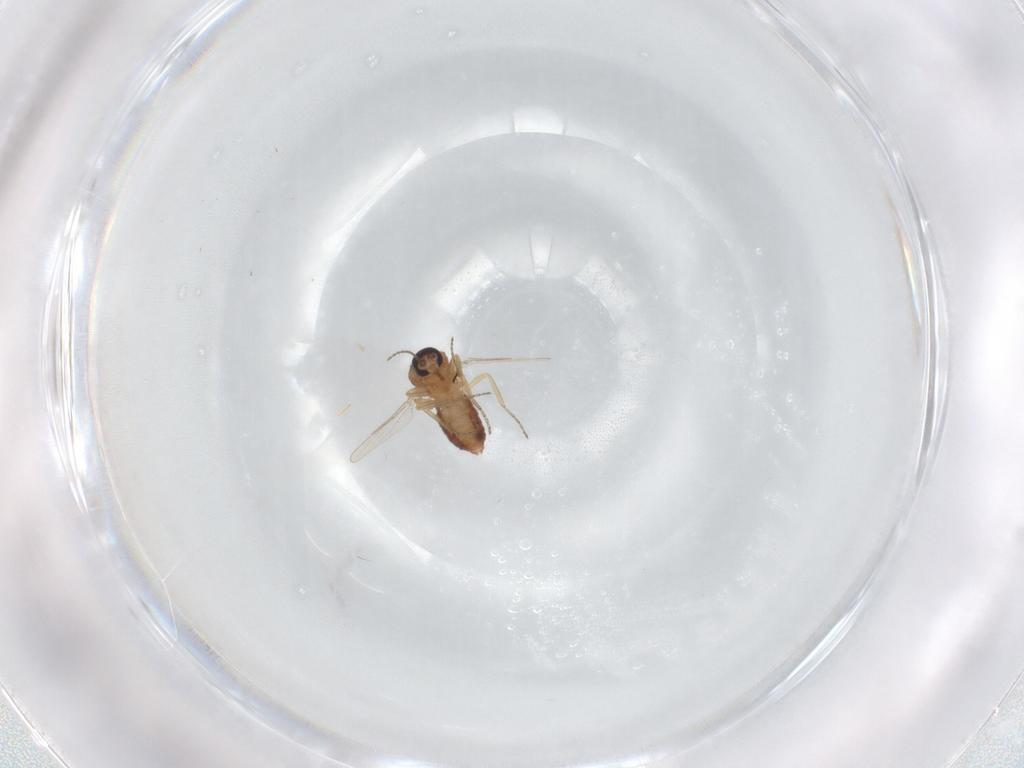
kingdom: Animalia
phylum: Arthropoda
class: Insecta
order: Diptera
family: Ceratopogonidae
